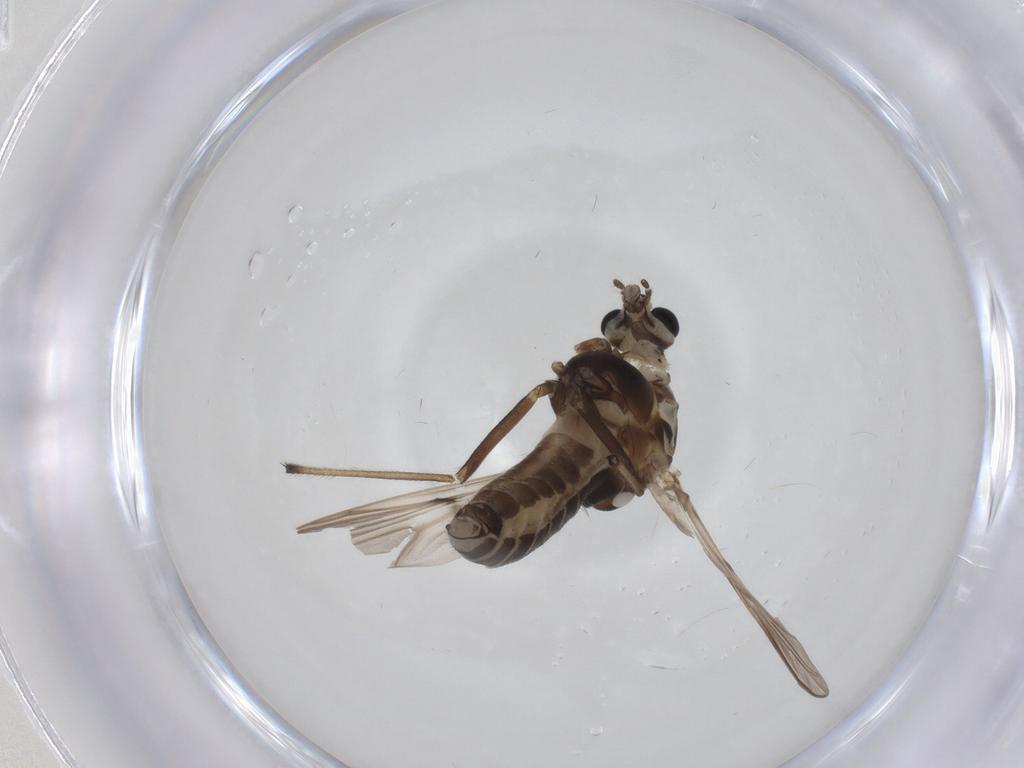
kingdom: Animalia
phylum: Arthropoda
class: Insecta
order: Diptera
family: Chironomidae
